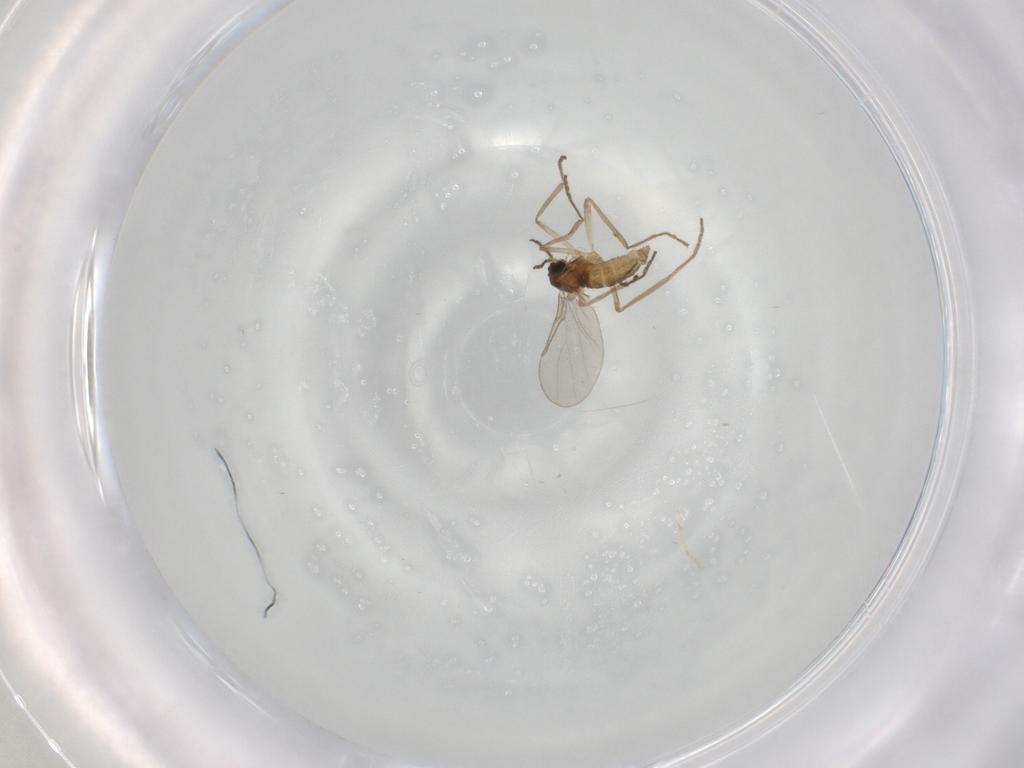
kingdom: Animalia
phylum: Arthropoda
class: Insecta
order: Diptera
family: Cecidomyiidae
